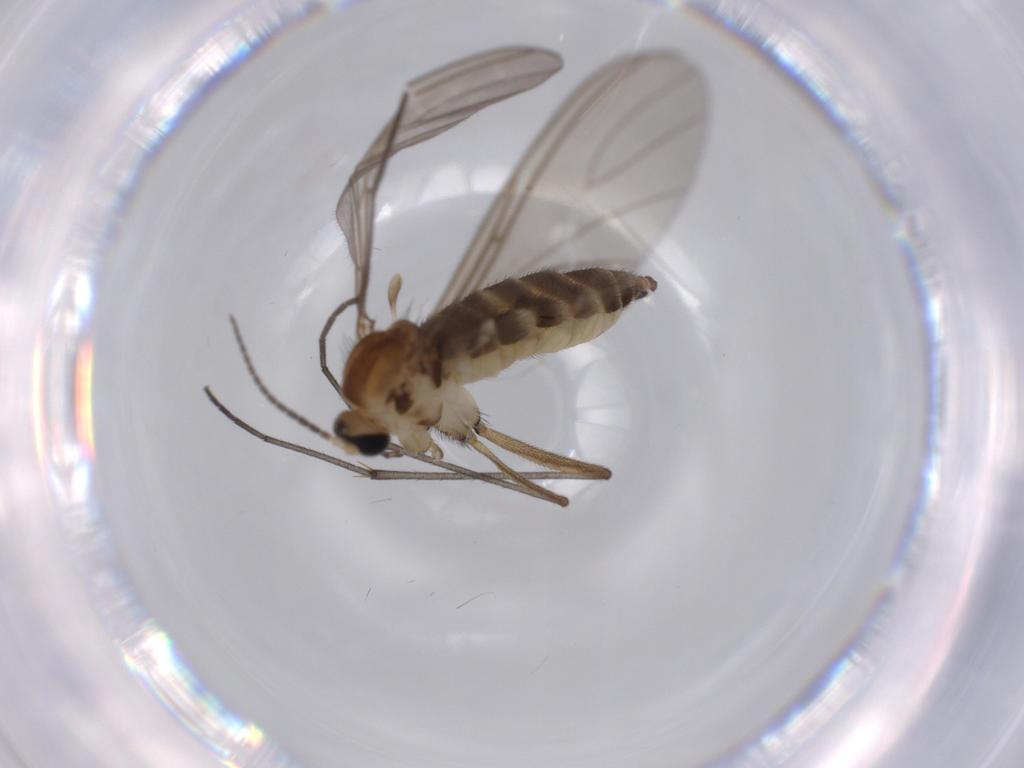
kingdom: Animalia
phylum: Arthropoda
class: Insecta
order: Diptera
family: Sciaridae
